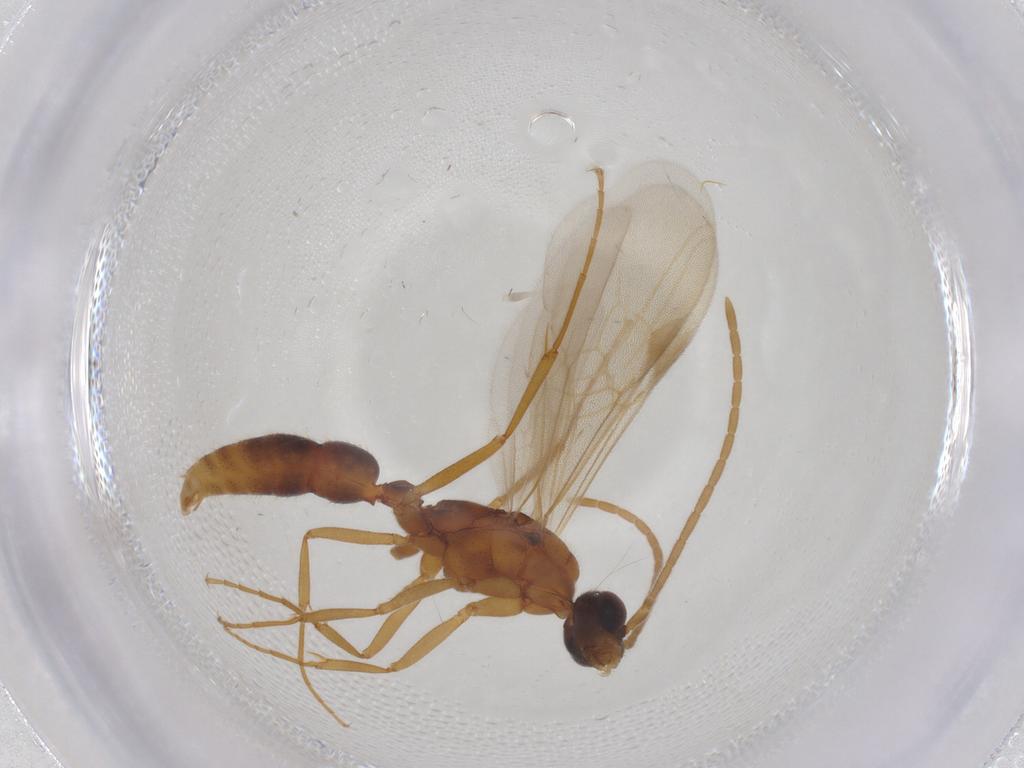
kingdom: Animalia
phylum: Arthropoda
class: Insecta
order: Hymenoptera
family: Formicidae
